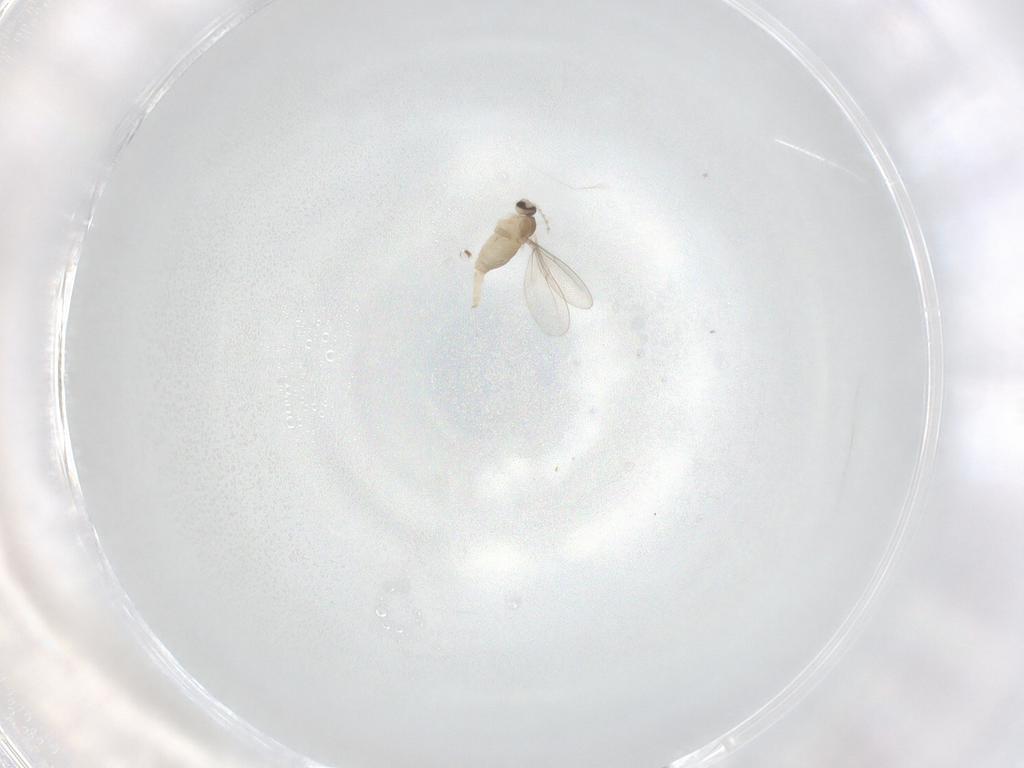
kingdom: Animalia
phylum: Arthropoda
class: Insecta
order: Diptera
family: Cecidomyiidae
